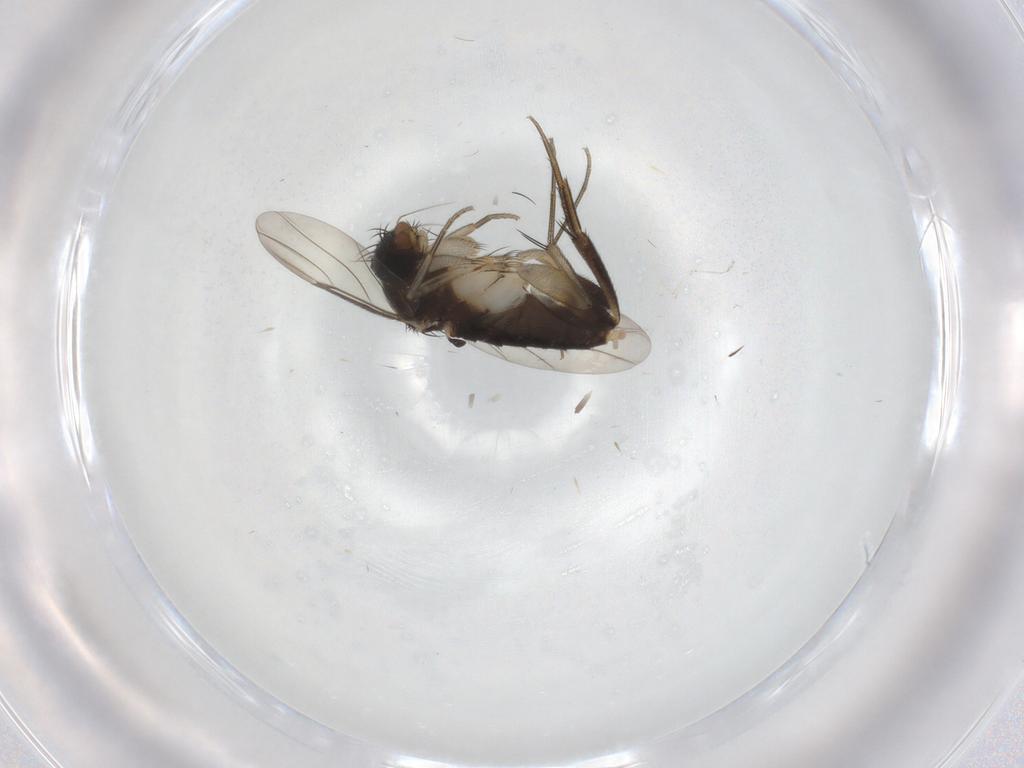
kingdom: Animalia
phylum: Arthropoda
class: Insecta
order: Diptera
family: Phoridae
